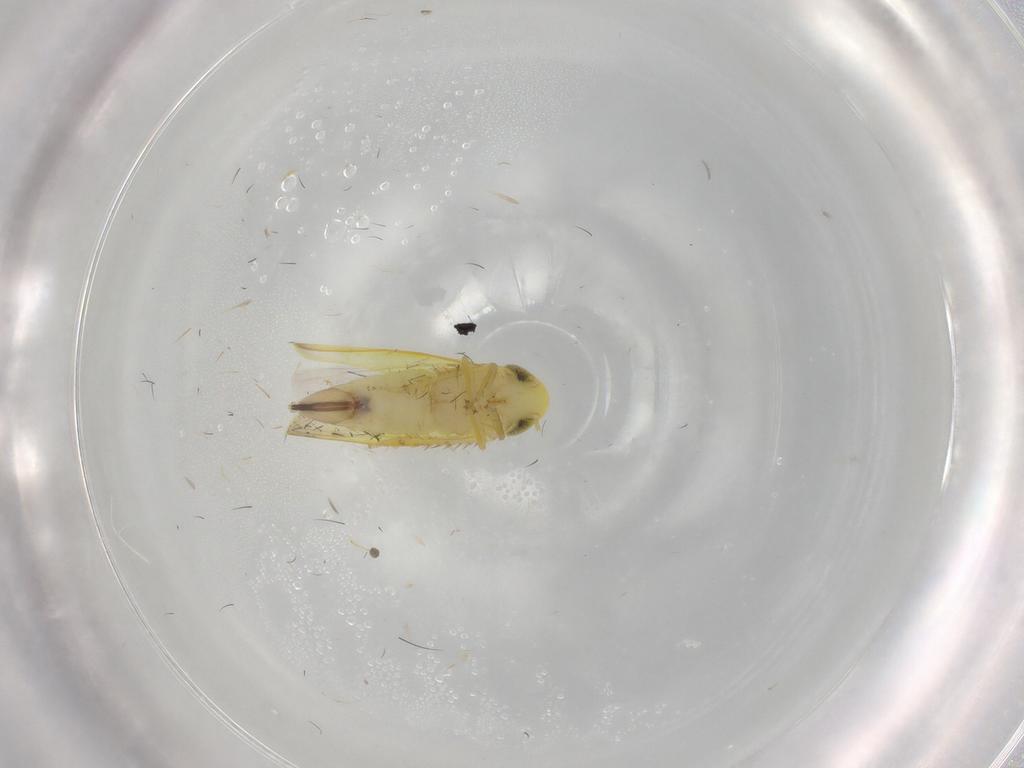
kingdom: Animalia
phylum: Arthropoda
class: Insecta
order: Hemiptera
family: Cicadellidae
